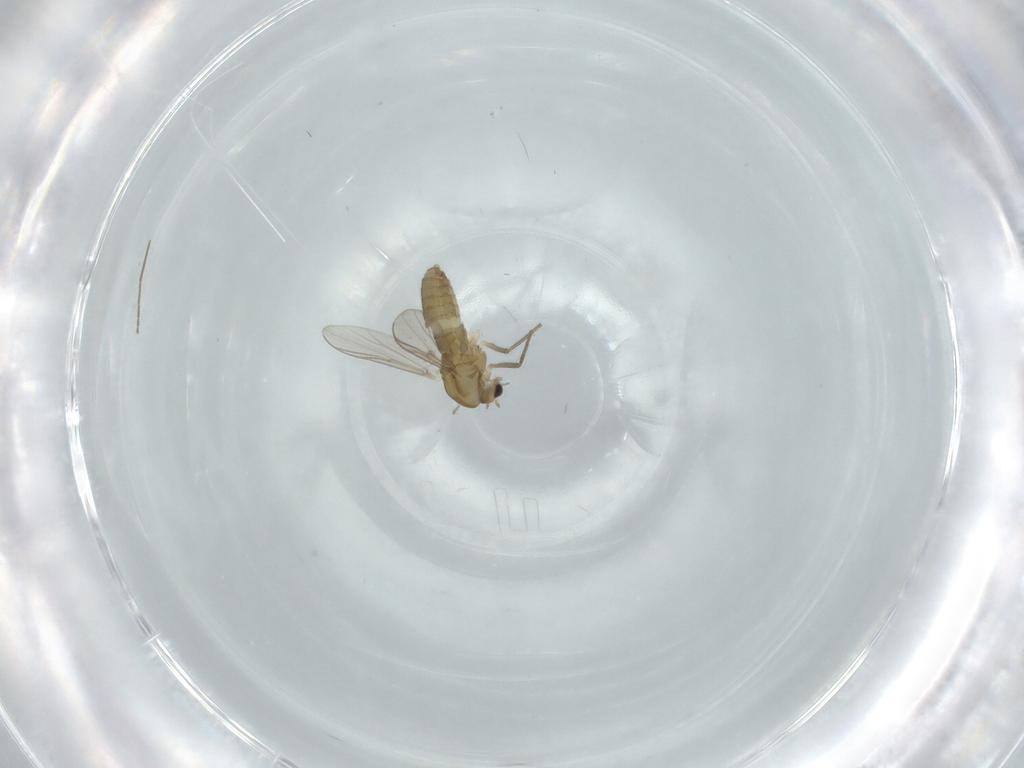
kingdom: Animalia
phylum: Arthropoda
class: Insecta
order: Diptera
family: Chironomidae
